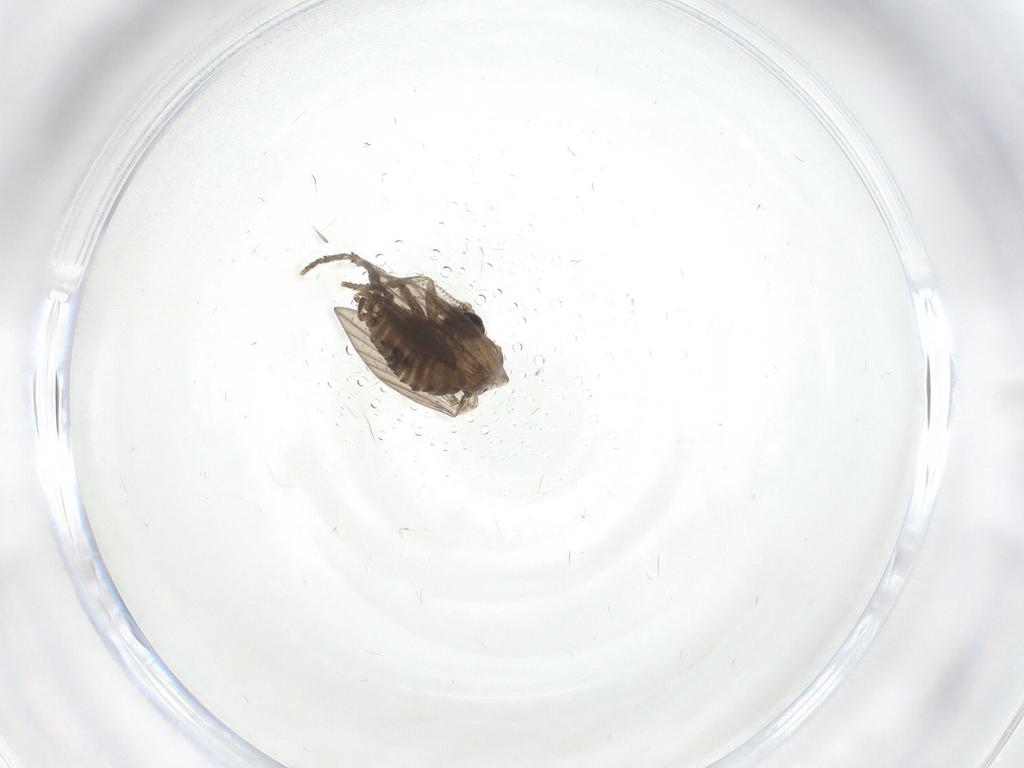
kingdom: Animalia
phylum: Arthropoda
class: Insecta
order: Diptera
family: Psychodidae
